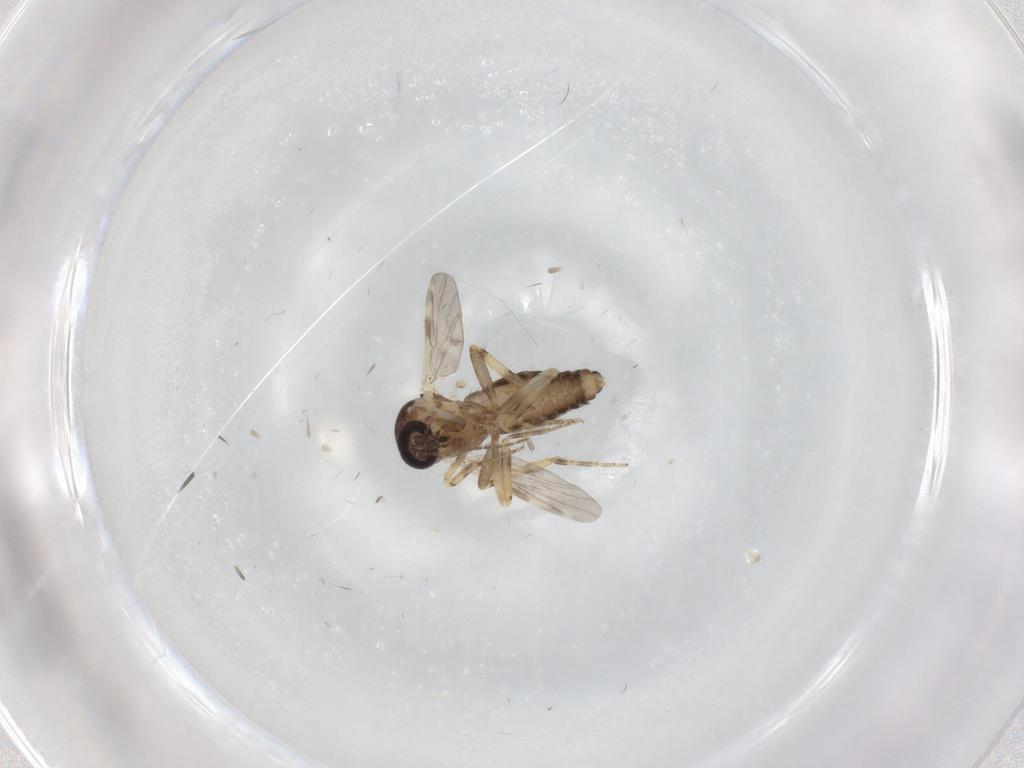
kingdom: Animalia
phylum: Arthropoda
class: Insecta
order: Diptera
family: Ceratopogonidae
